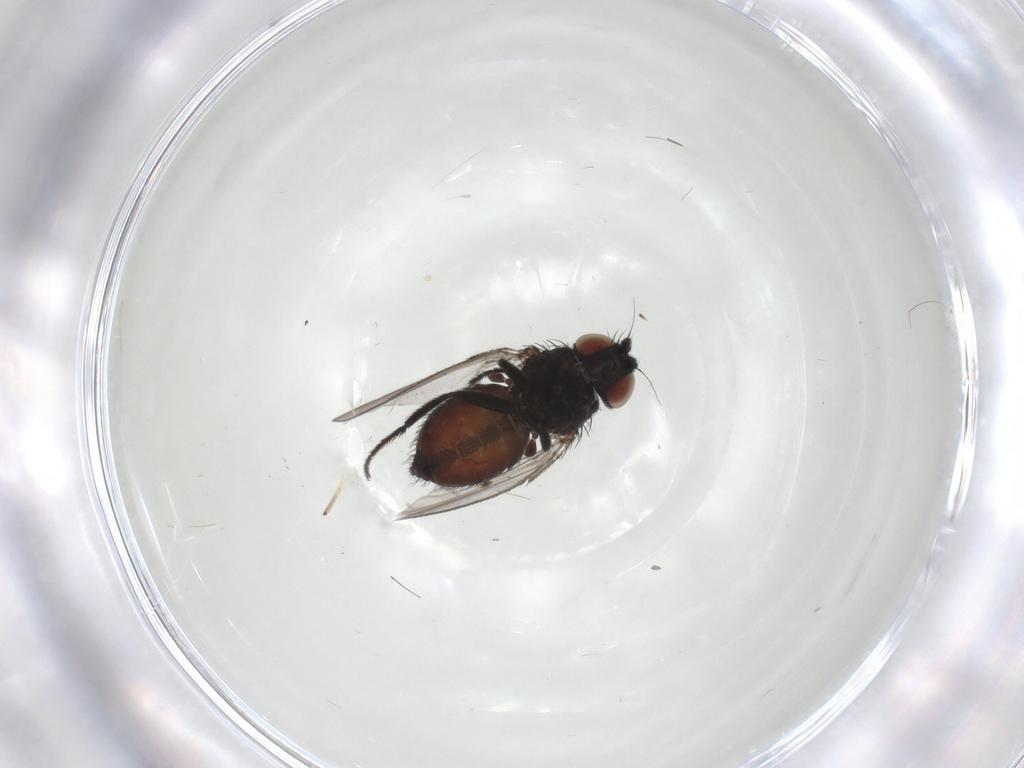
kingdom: Animalia
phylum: Arthropoda
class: Insecta
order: Diptera
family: Milichiidae
